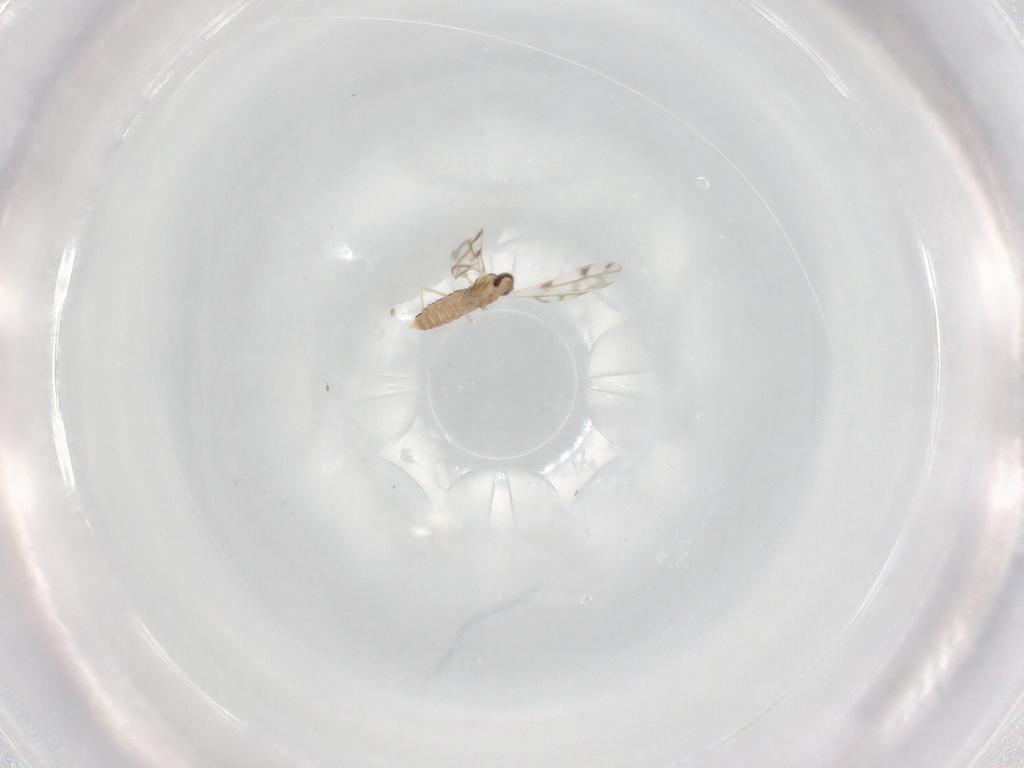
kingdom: Animalia
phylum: Arthropoda
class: Insecta
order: Diptera
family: Cecidomyiidae
